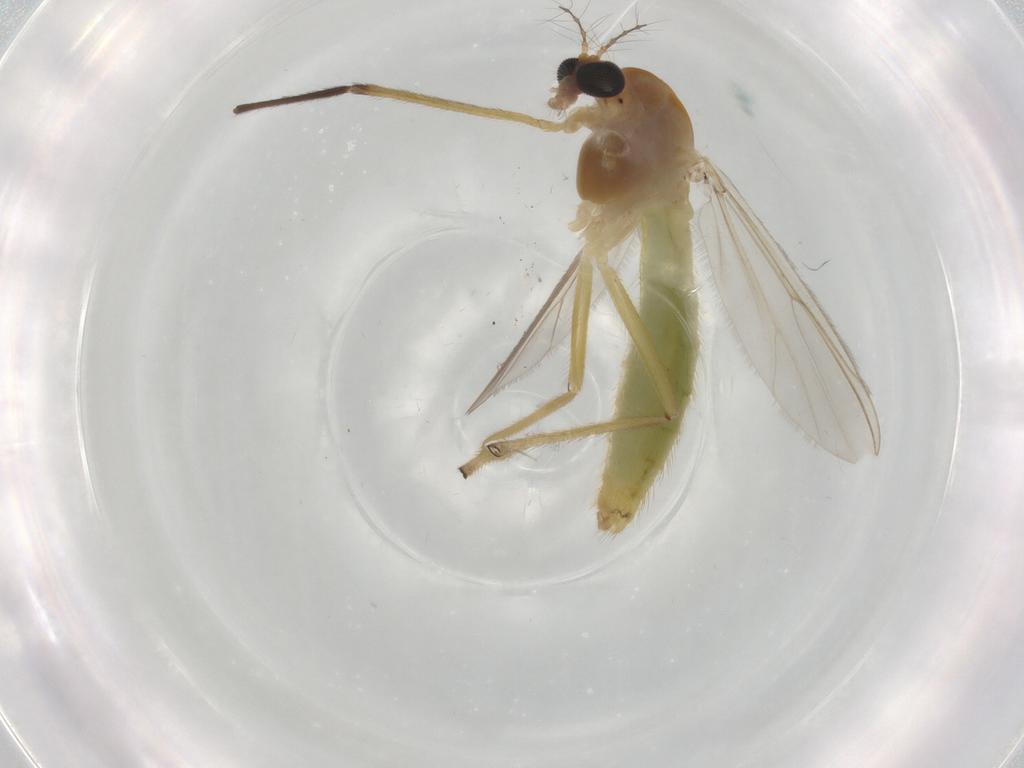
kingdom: Animalia
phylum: Arthropoda
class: Insecta
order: Diptera
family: Chironomidae
